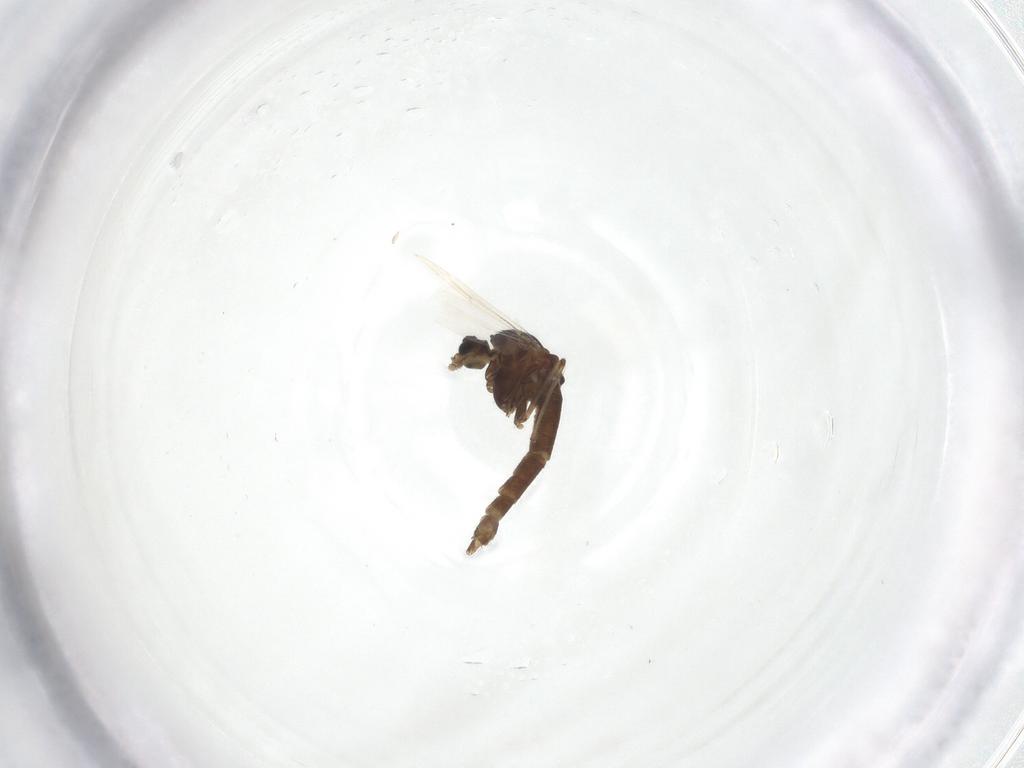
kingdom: Animalia
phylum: Arthropoda
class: Insecta
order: Diptera
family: Chironomidae
